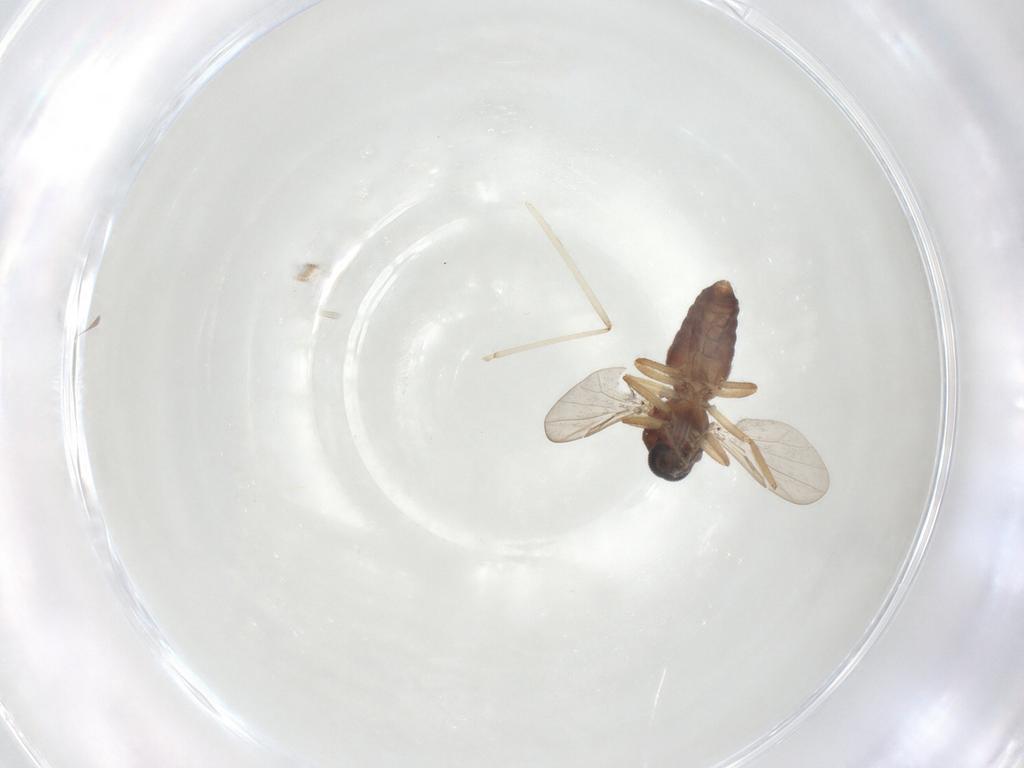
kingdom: Animalia
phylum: Arthropoda
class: Insecta
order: Diptera
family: Ceratopogonidae
